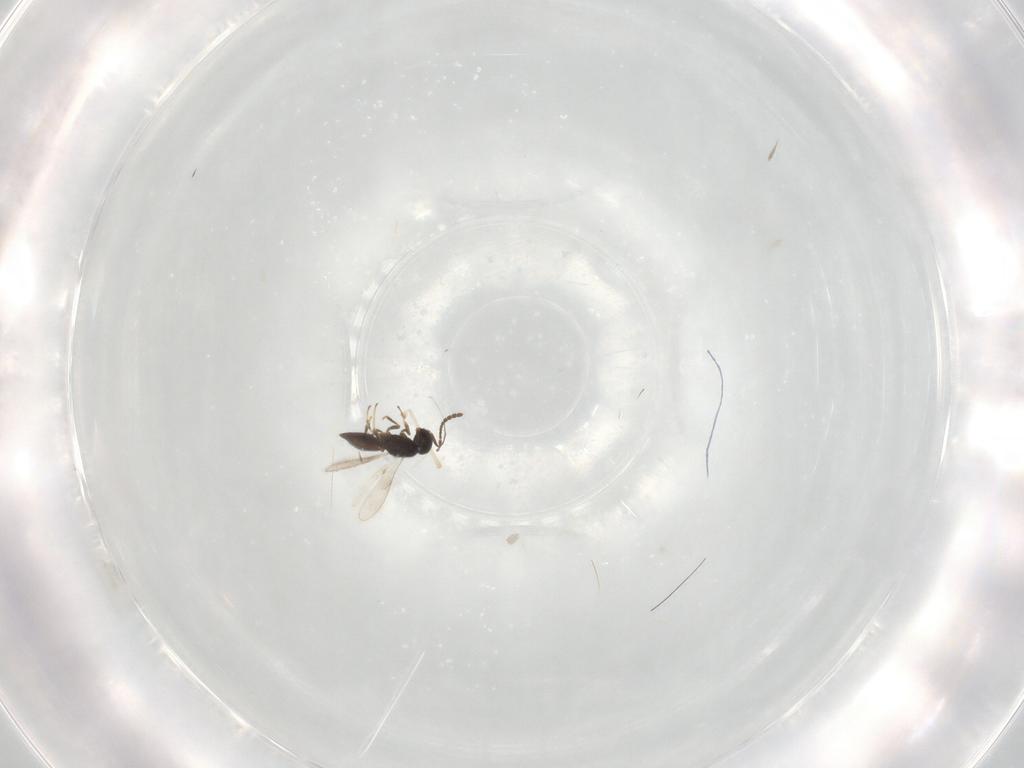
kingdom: Animalia
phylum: Arthropoda
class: Insecta
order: Hymenoptera
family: Scelionidae
